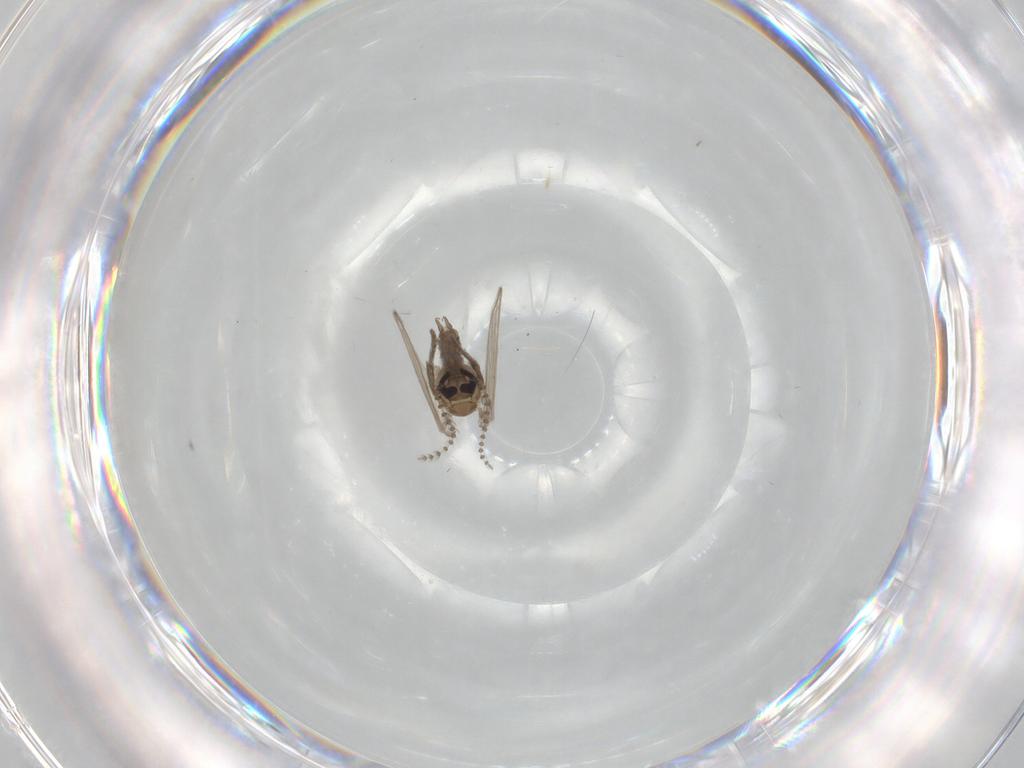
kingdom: Animalia
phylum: Arthropoda
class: Insecta
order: Diptera
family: Psychodidae
